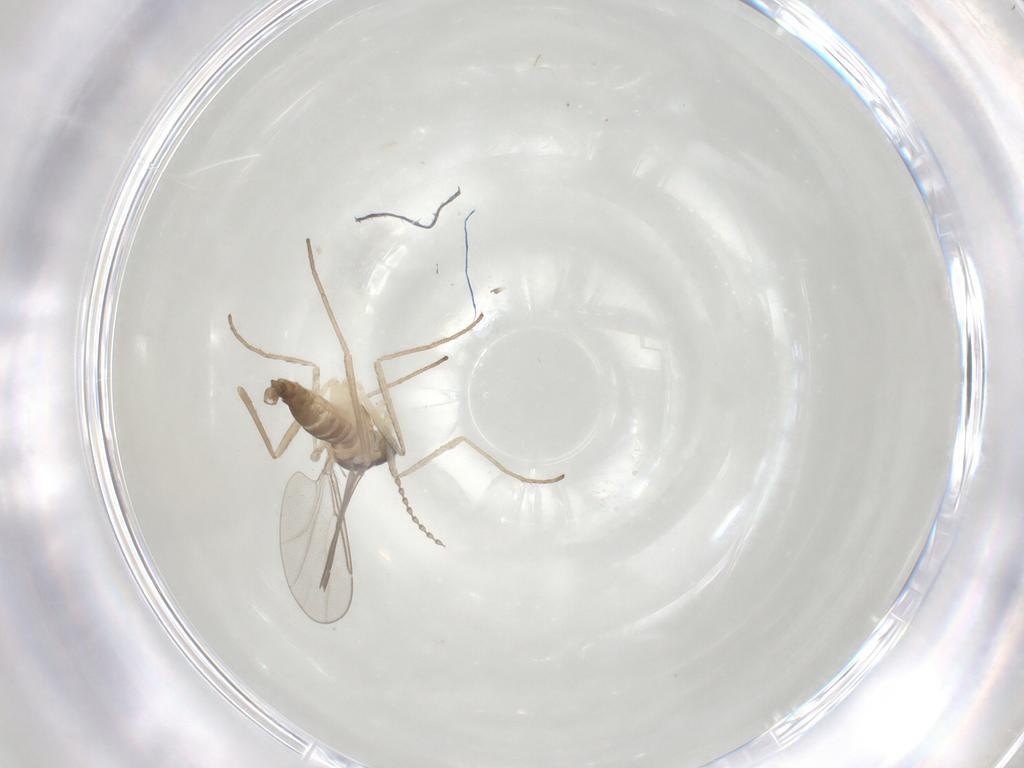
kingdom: Animalia
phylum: Arthropoda
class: Insecta
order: Diptera
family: Cecidomyiidae
